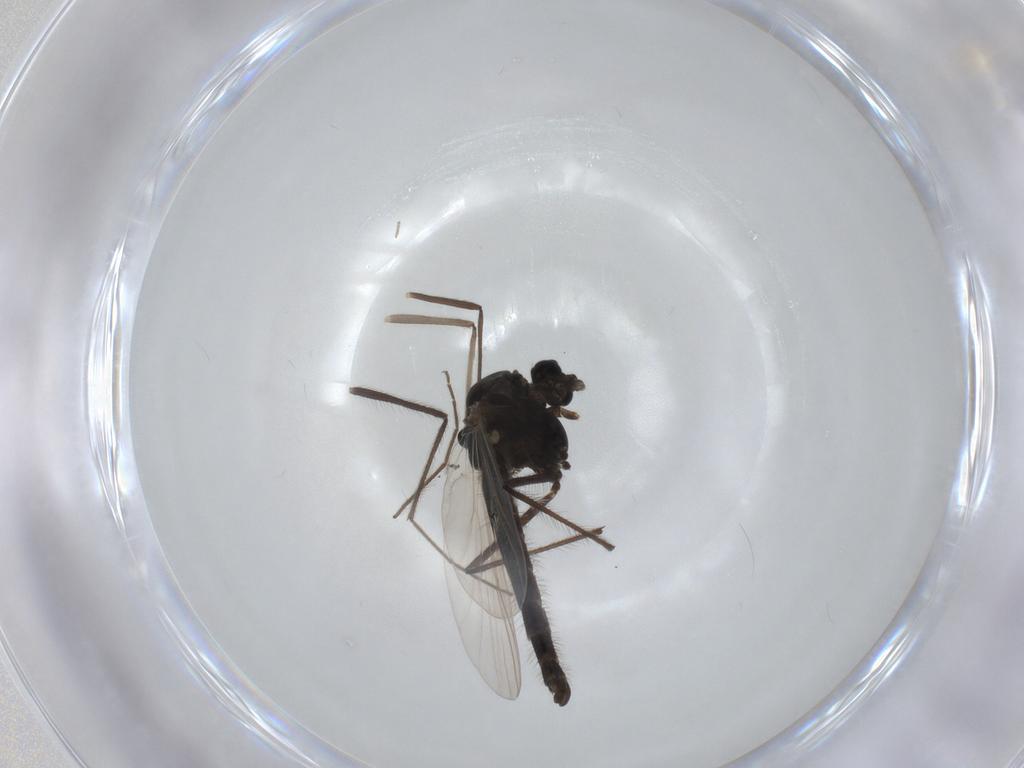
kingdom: Animalia
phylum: Arthropoda
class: Insecta
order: Diptera
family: Chironomidae
